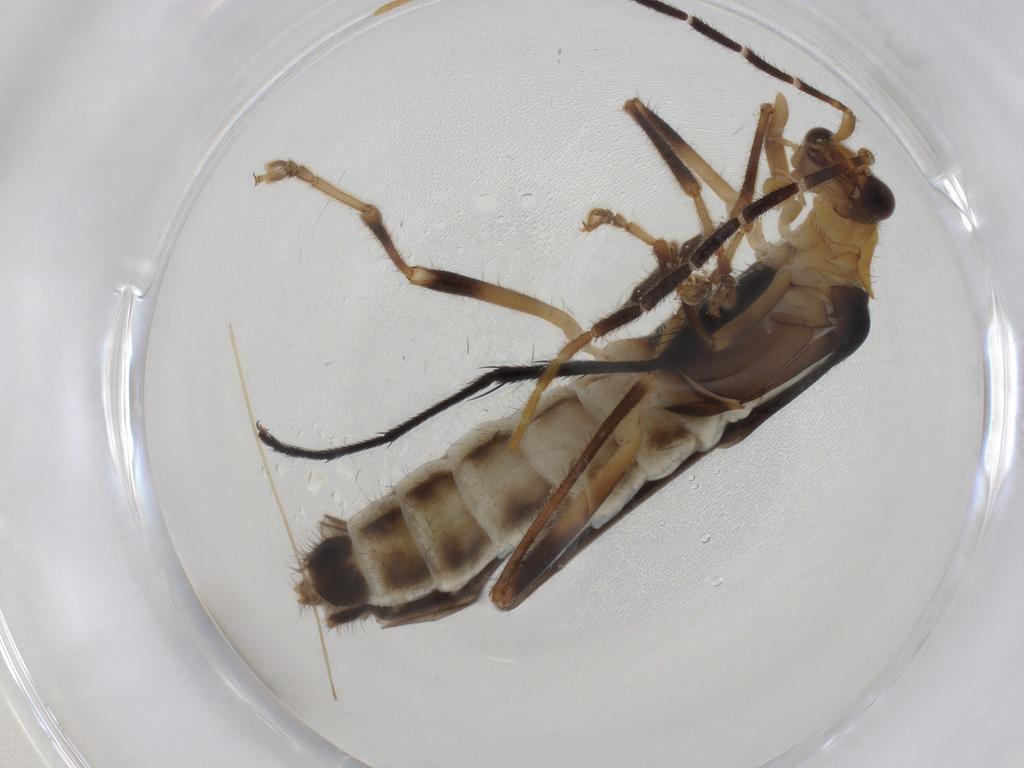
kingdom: Animalia
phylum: Arthropoda
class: Insecta
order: Coleoptera
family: Cantharidae
